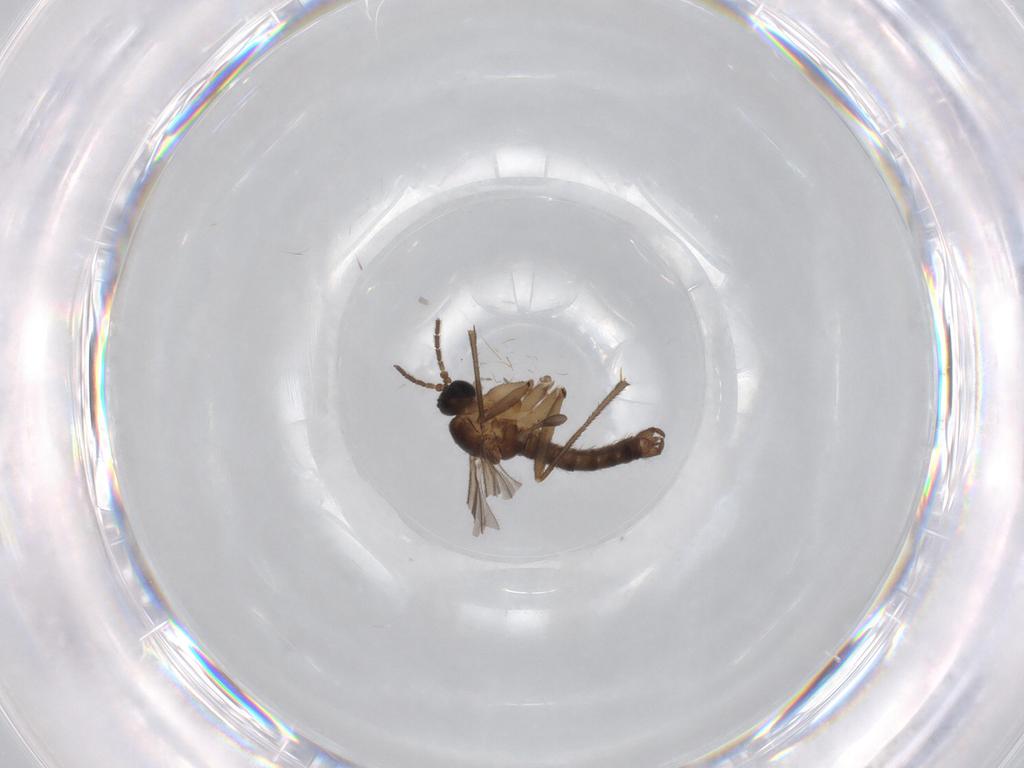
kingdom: Animalia
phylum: Arthropoda
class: Insecta
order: Diptera
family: Sciaridae
